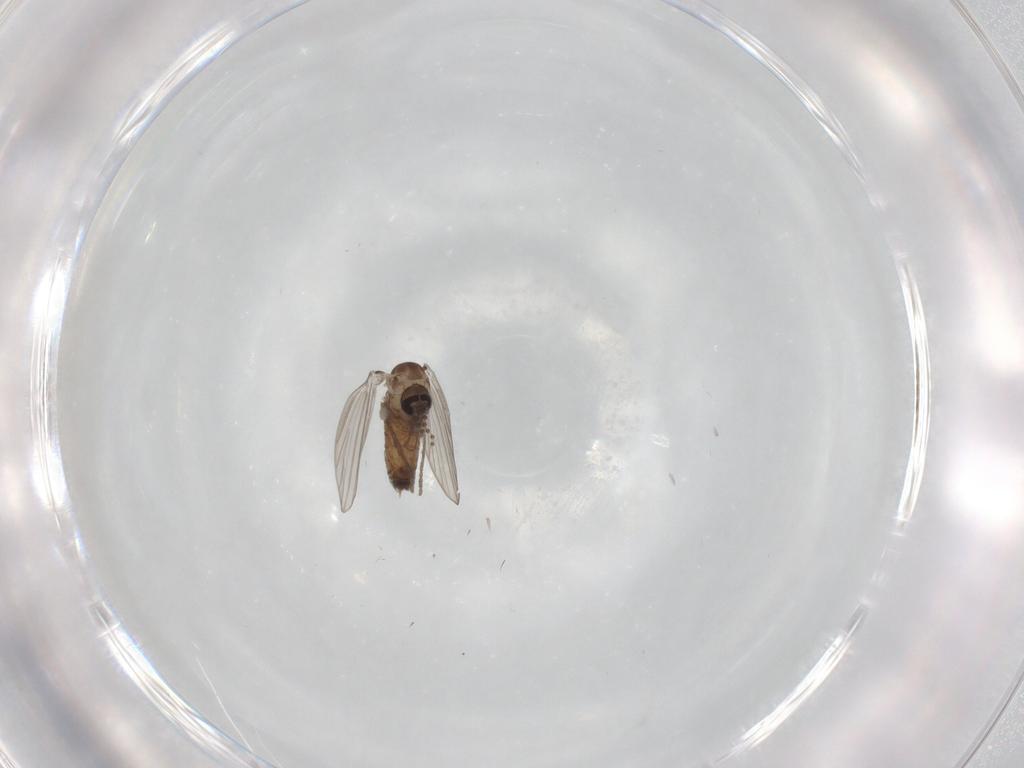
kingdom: Animalia
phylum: Arthropoda
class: Insecta
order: Diptera
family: Psychodidae
